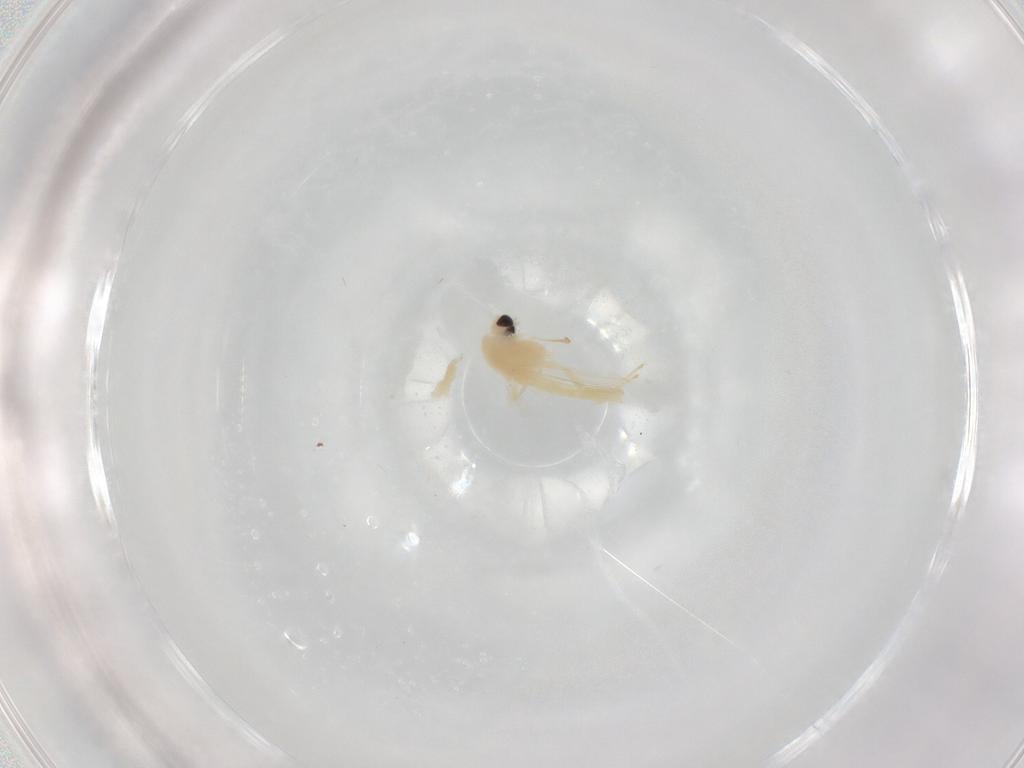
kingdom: Animalia
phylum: Arthropoda
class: Insecta
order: Diptera
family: Chironomidae
